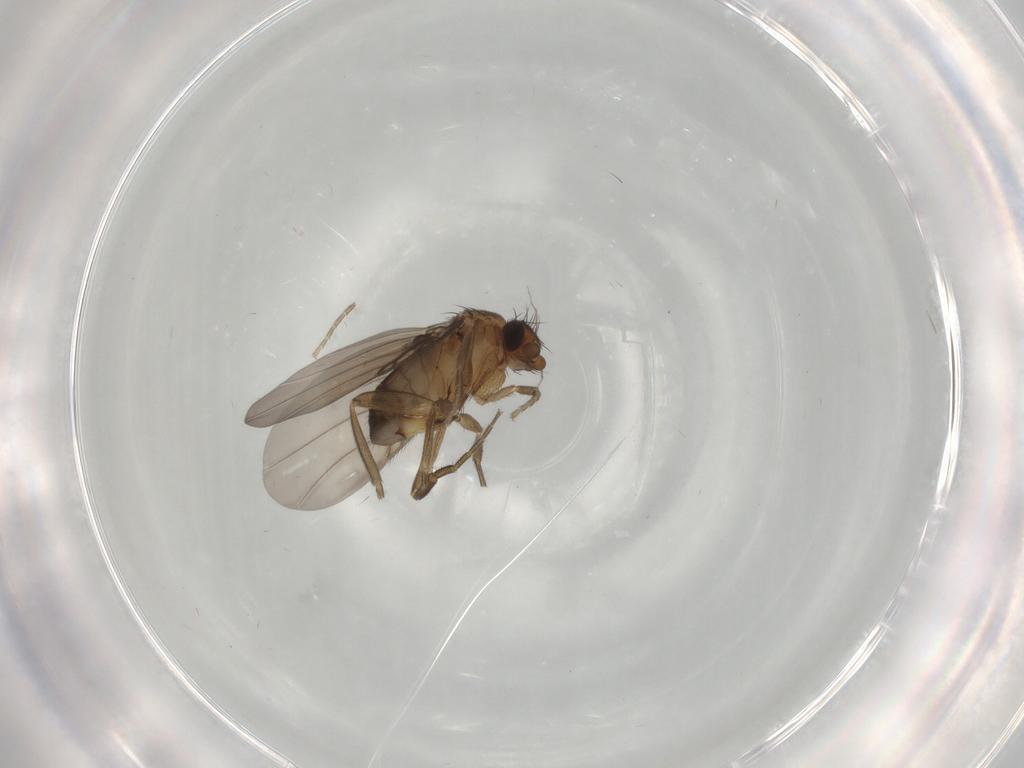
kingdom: Animalia
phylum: Arthropoda
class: Insecta
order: Diptera
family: Phoridae
